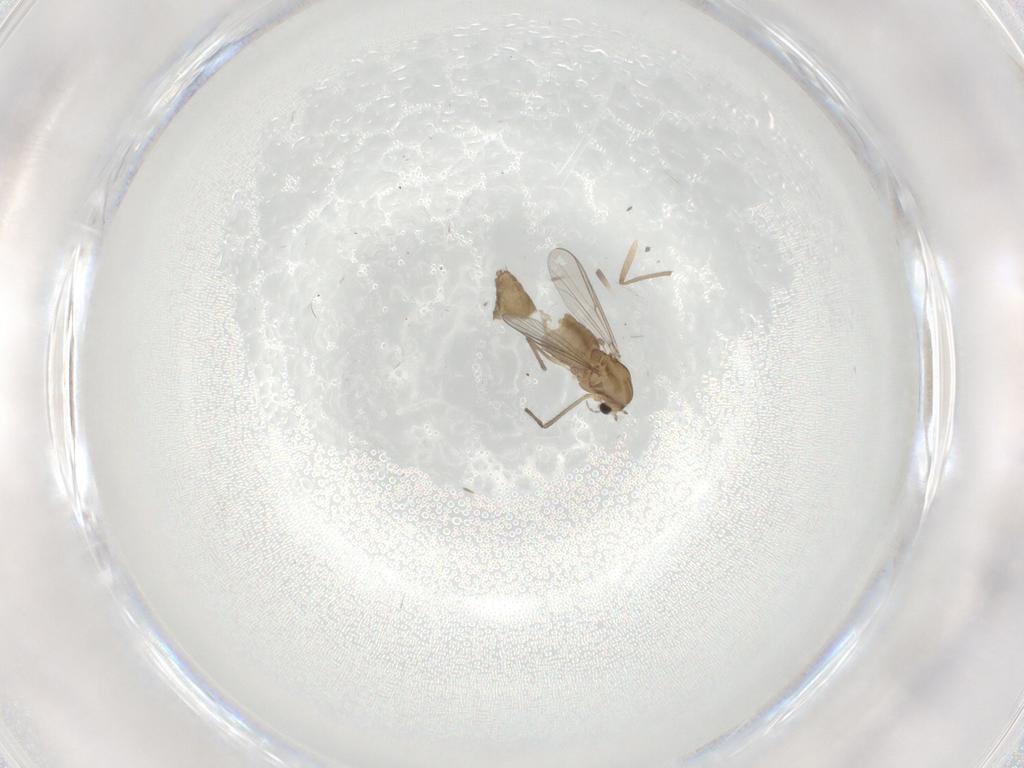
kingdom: Animalia
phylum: Arthropoda
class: Insecta
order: Diptera
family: Chironomidae
